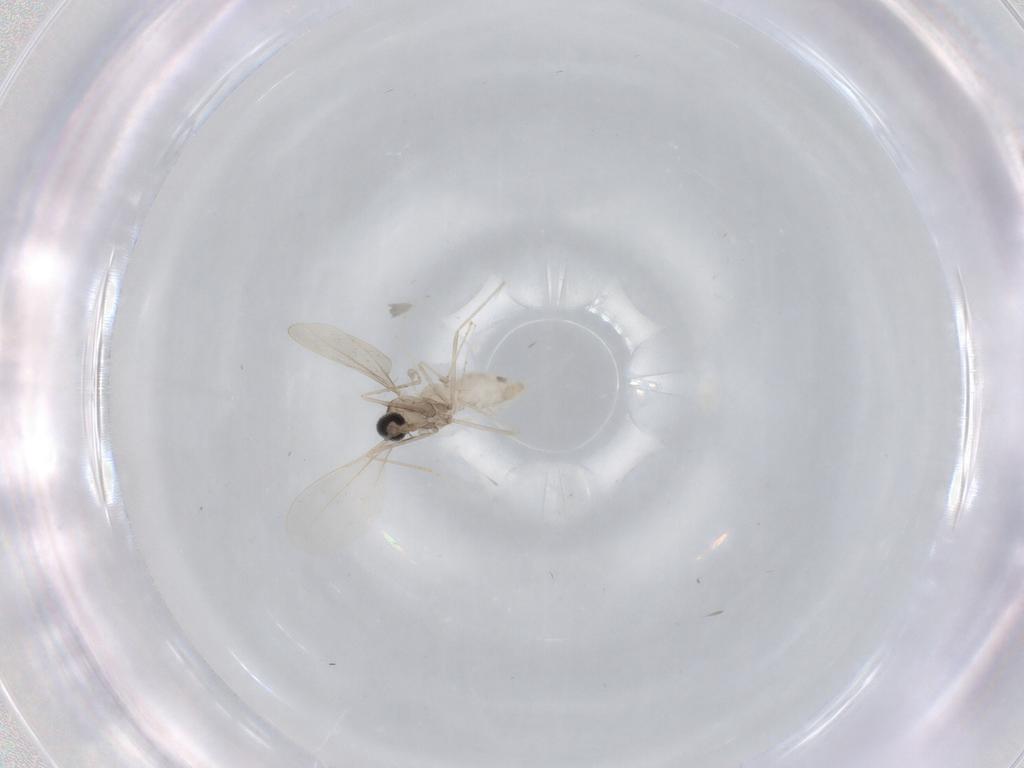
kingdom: Animalia
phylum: Arthropoda
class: Insecta
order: Diptera
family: Cecidomyiidae
